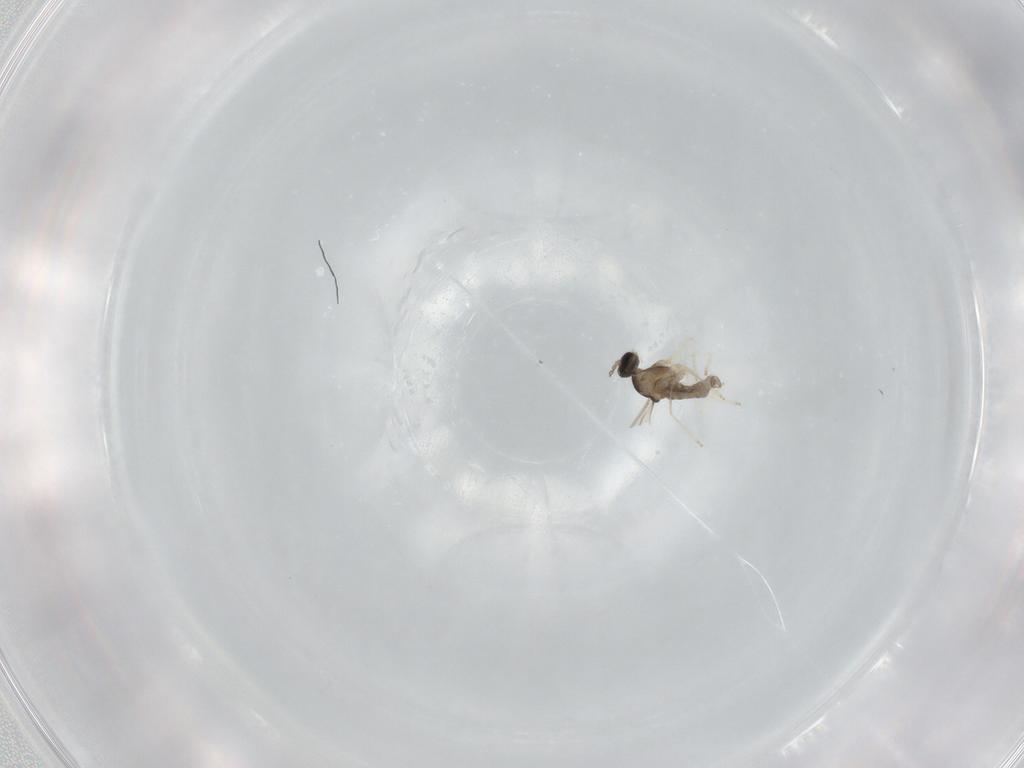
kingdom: Animalia
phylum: Arthropoda
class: Insecta
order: Diptera
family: Cecidomyiidae
